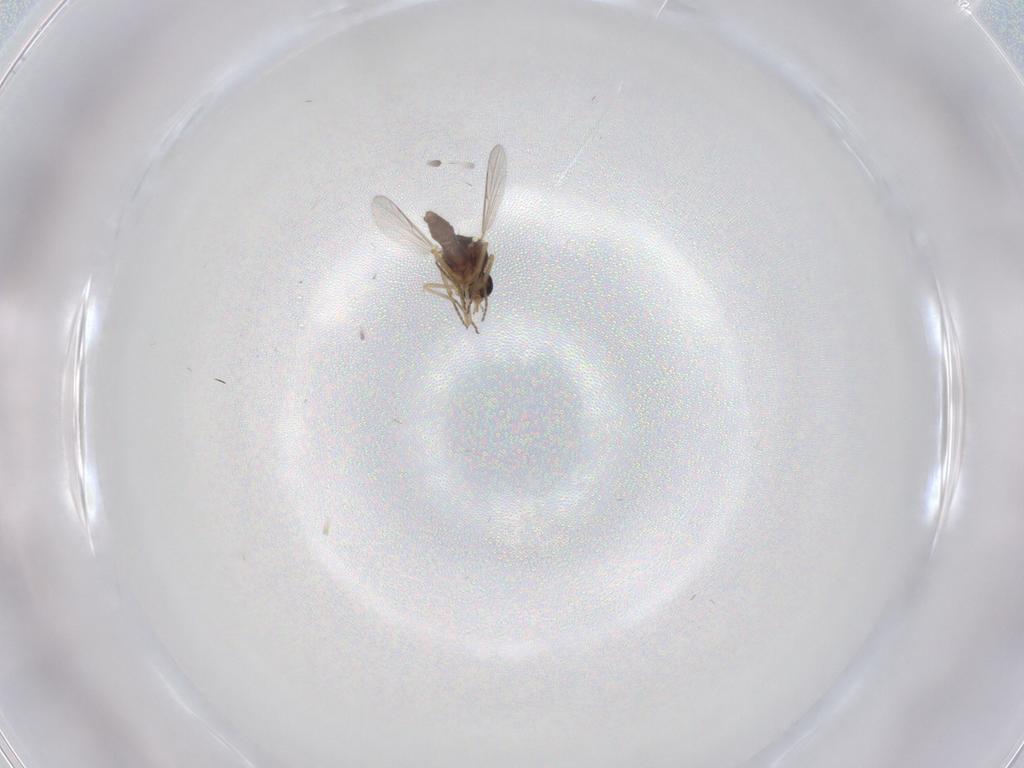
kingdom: Animalia
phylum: Arthropoda
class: Insecta
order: Diptera
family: Ceratopogonidae
